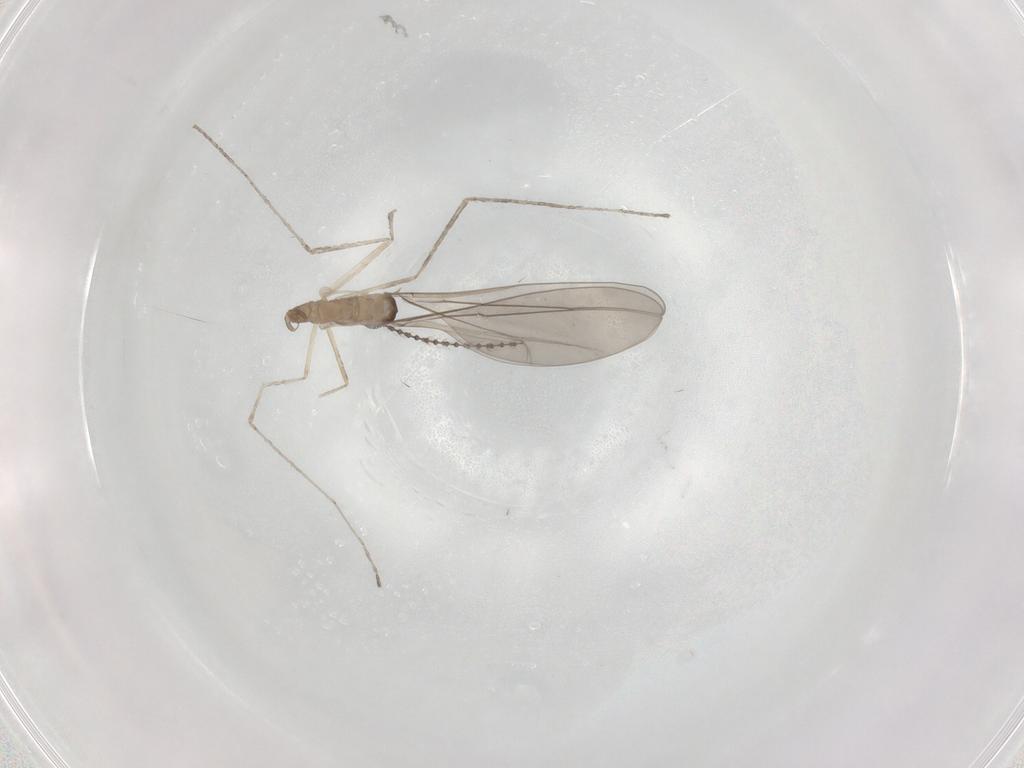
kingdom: Animalia
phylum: Arthropoda
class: Insecta
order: Diptera
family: Cecidomyiidae
